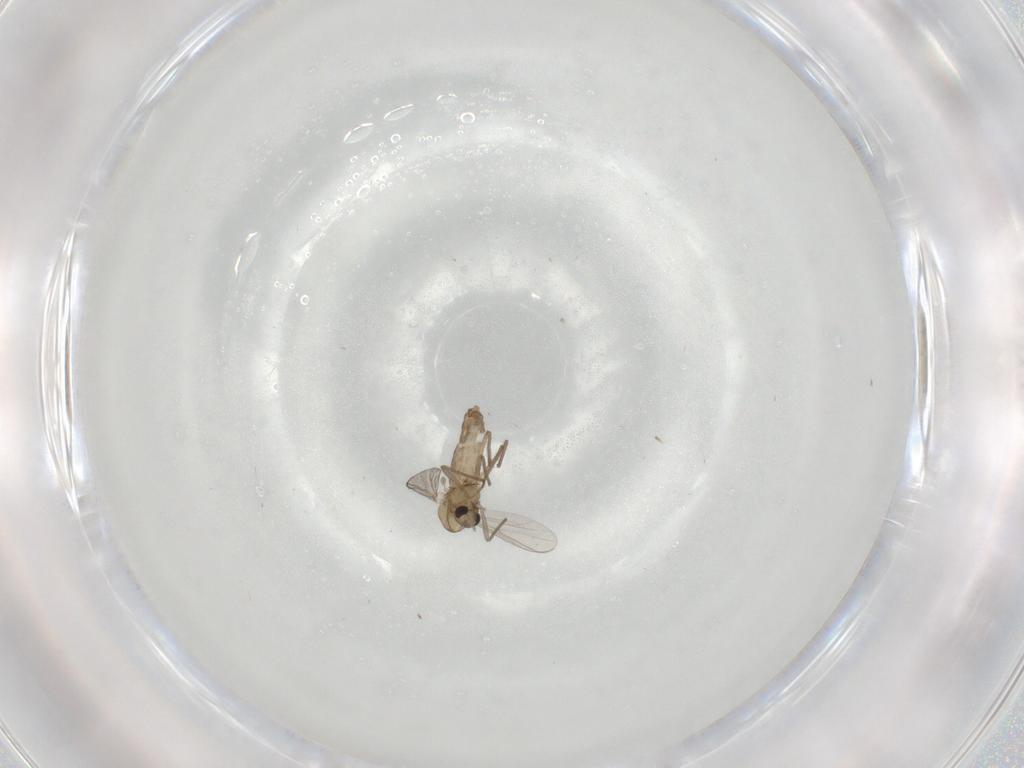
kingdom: Animalia
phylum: Arthropoda
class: Insecta
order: Diptera
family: Chironomidae
